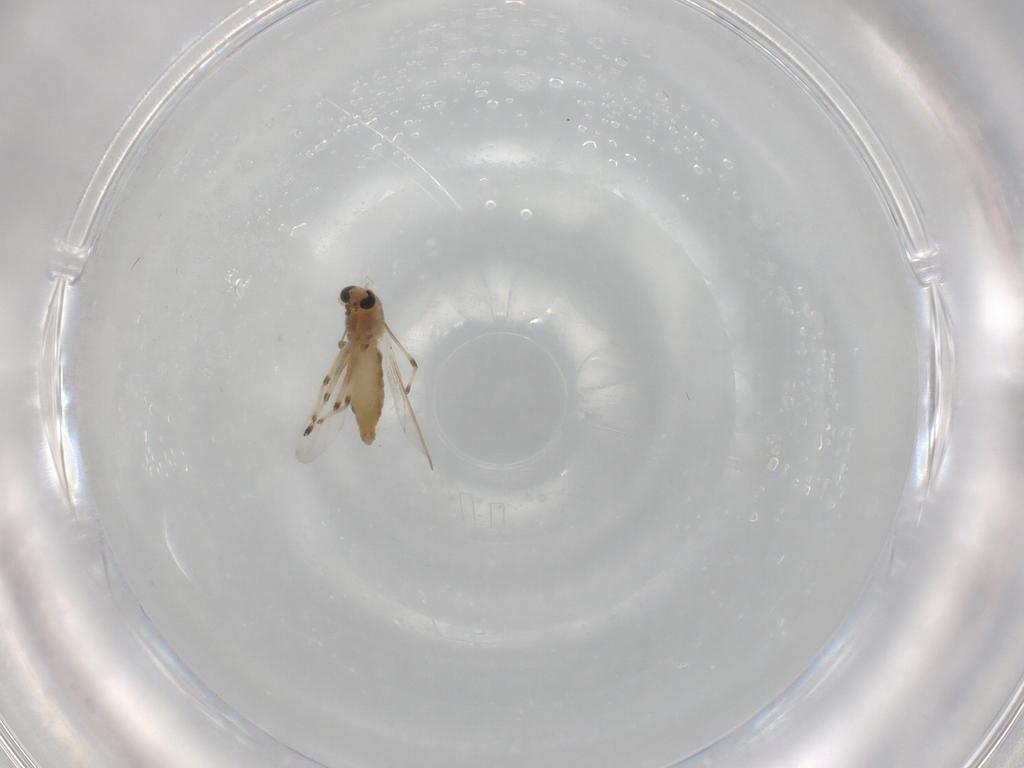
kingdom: Animalia
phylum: Arthropoda
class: Insecta
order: Diptera
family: Chironomidae
